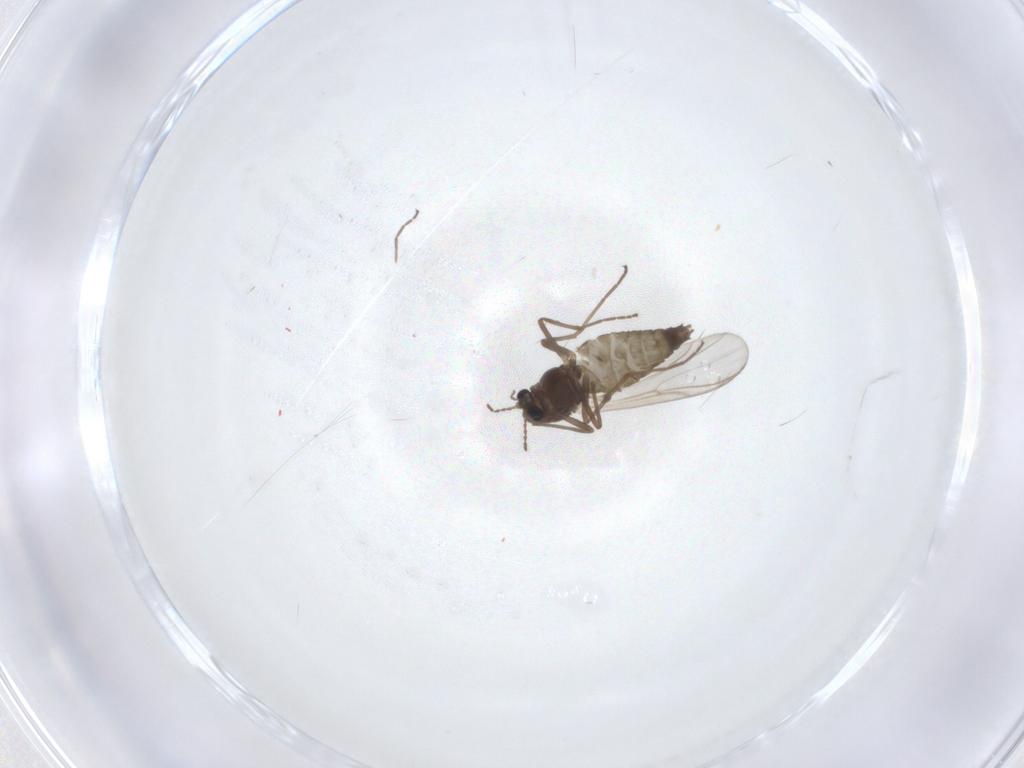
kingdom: Animalia
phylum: Arthropoda
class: Insecta
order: Diptera
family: Chironomidae
